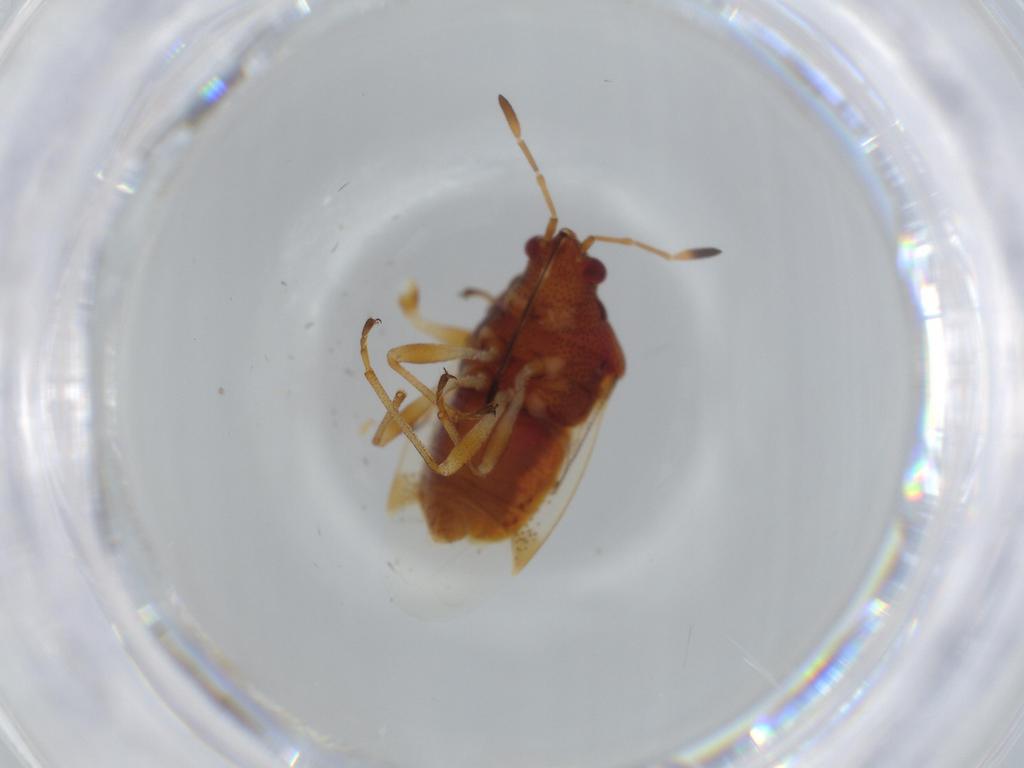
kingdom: Animalia
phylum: Arthropoda
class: Insecta
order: Hemiptera
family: Lygaeidae
